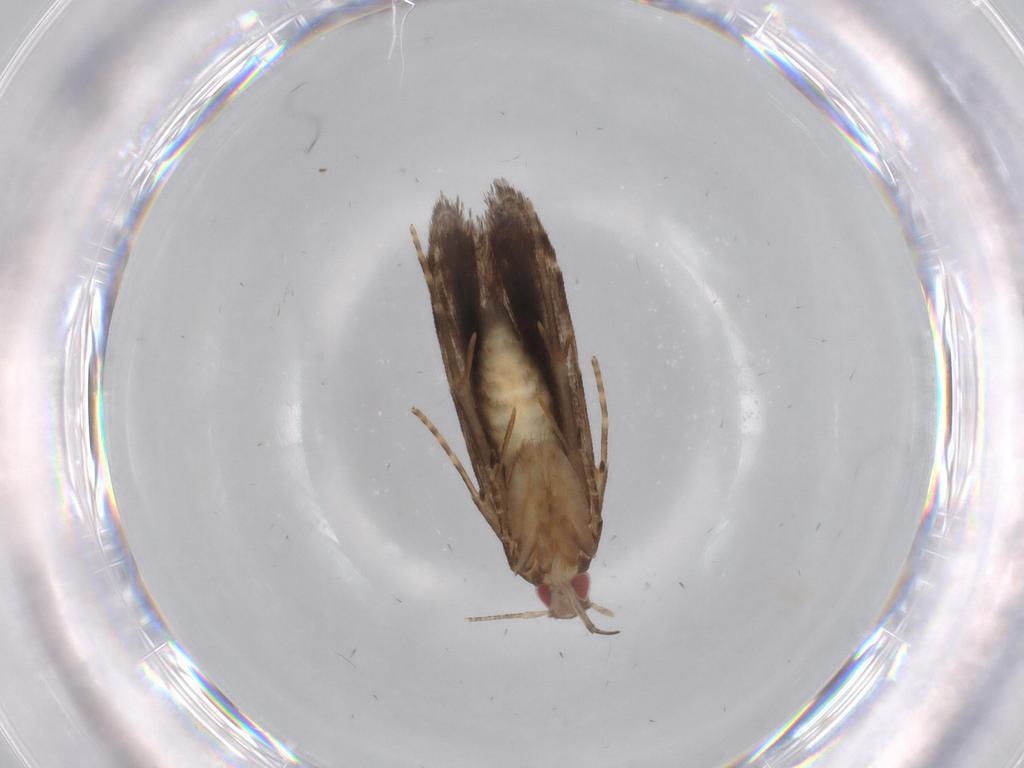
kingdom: Animalia
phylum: Arthropoda
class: Insecta
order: Lepidoptera
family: Gelechiidae
